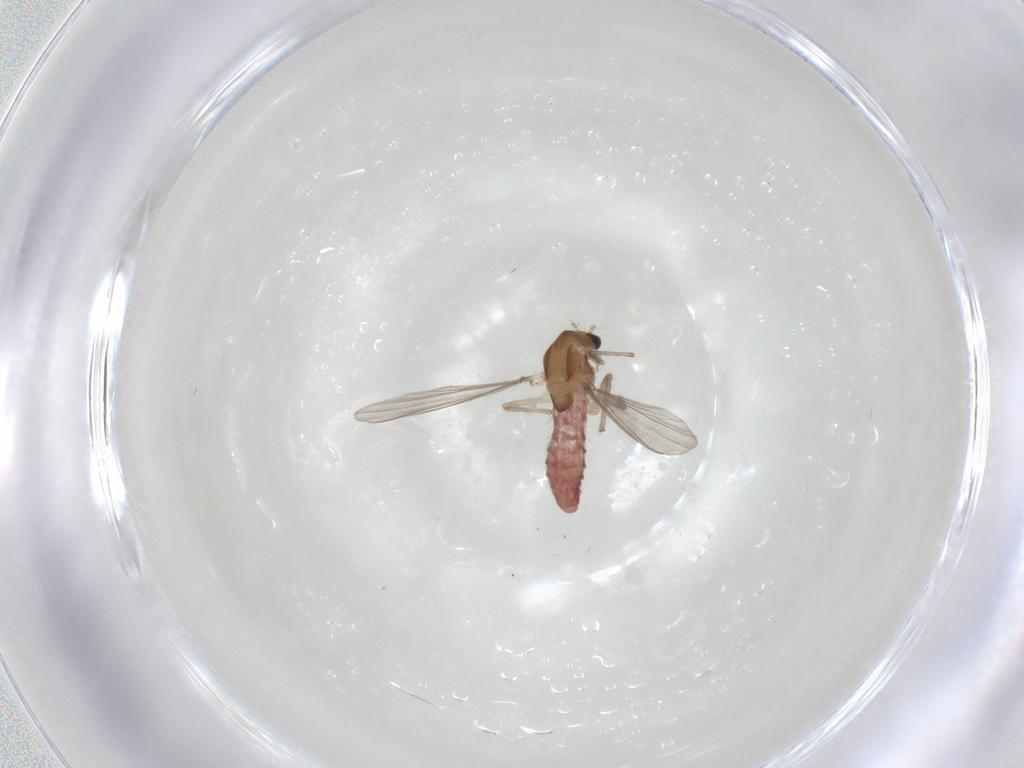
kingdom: Animalia
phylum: Arthropoda
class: Insecta
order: Diptera
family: Chironomidae
